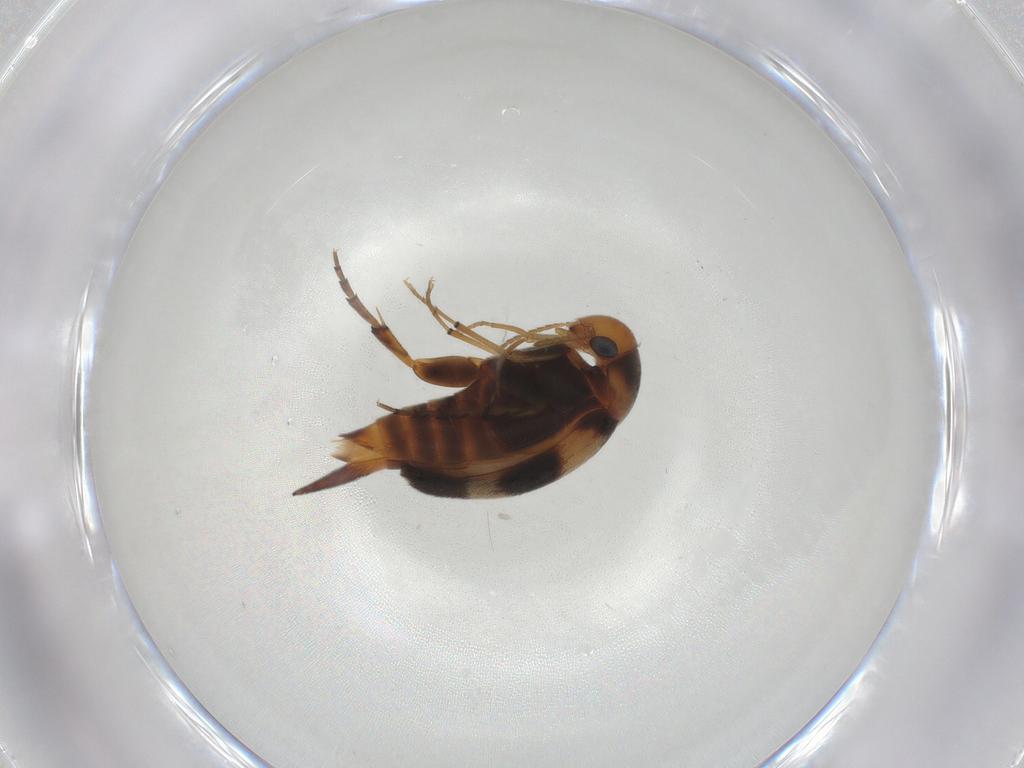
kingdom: Animalia
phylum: Arthropoda
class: Insecta
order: Coleoptera
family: Mordellidae
